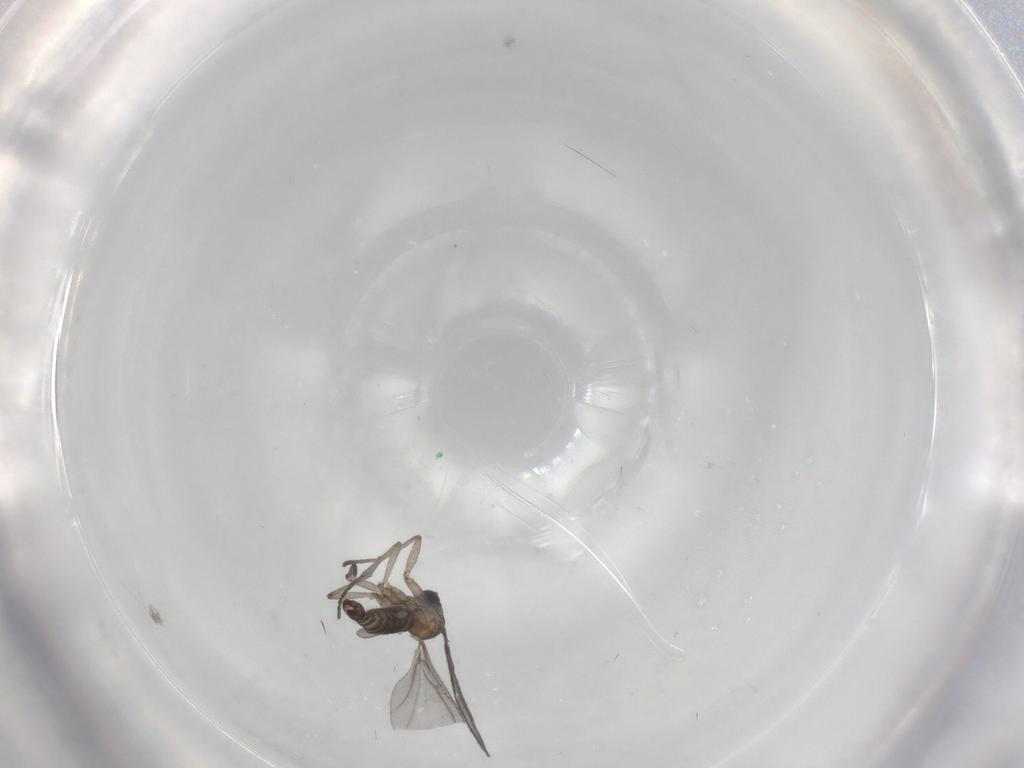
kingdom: Animalia
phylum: Arthropoda
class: Insecta
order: Diptera
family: Sciaridae
